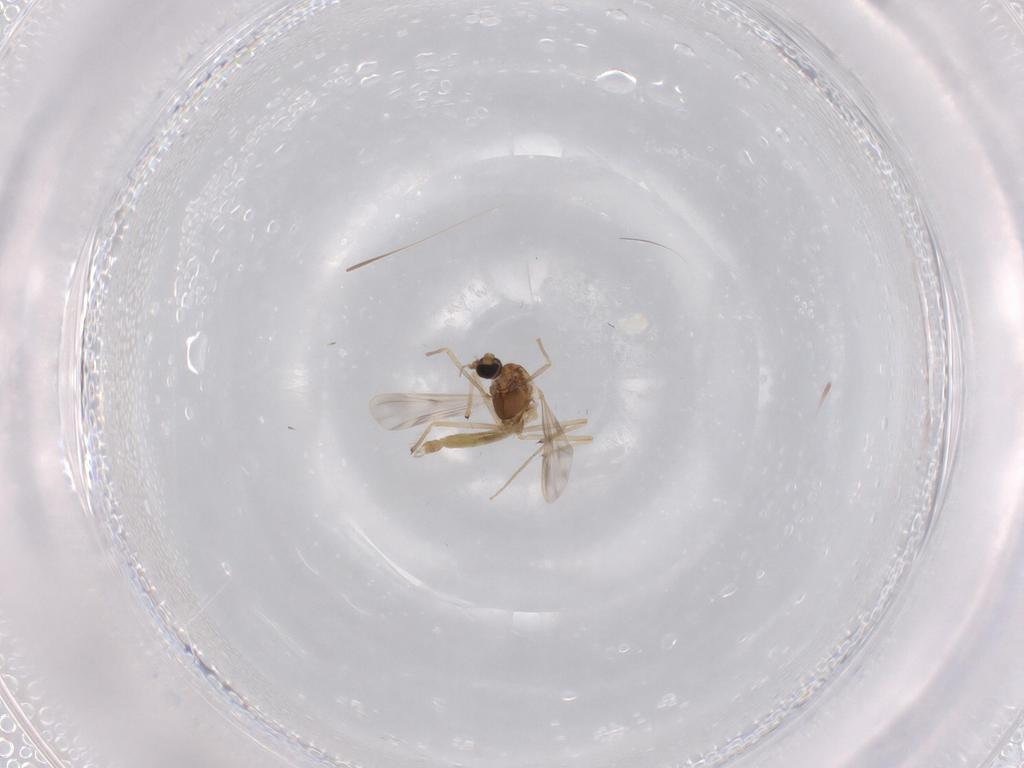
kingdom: Animalia
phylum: Arthropoda
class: Insecta
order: Diptera
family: Chironomidae
